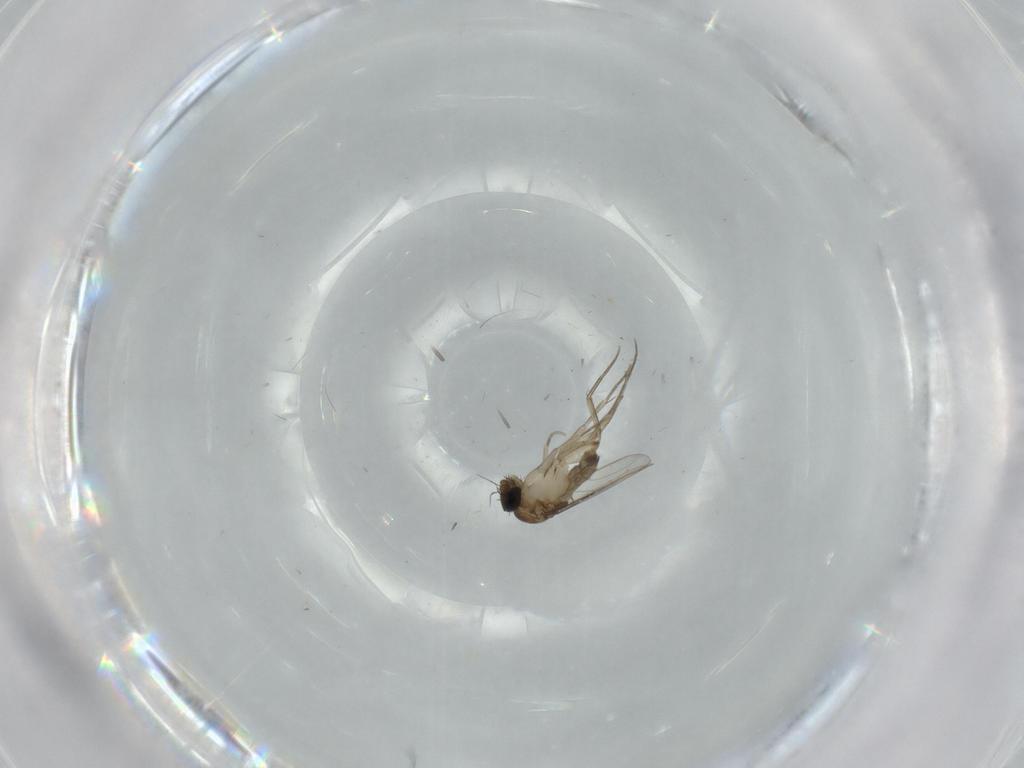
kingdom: Animalia
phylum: Arthropoda
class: Insecta
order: Diptera
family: Phoridae
